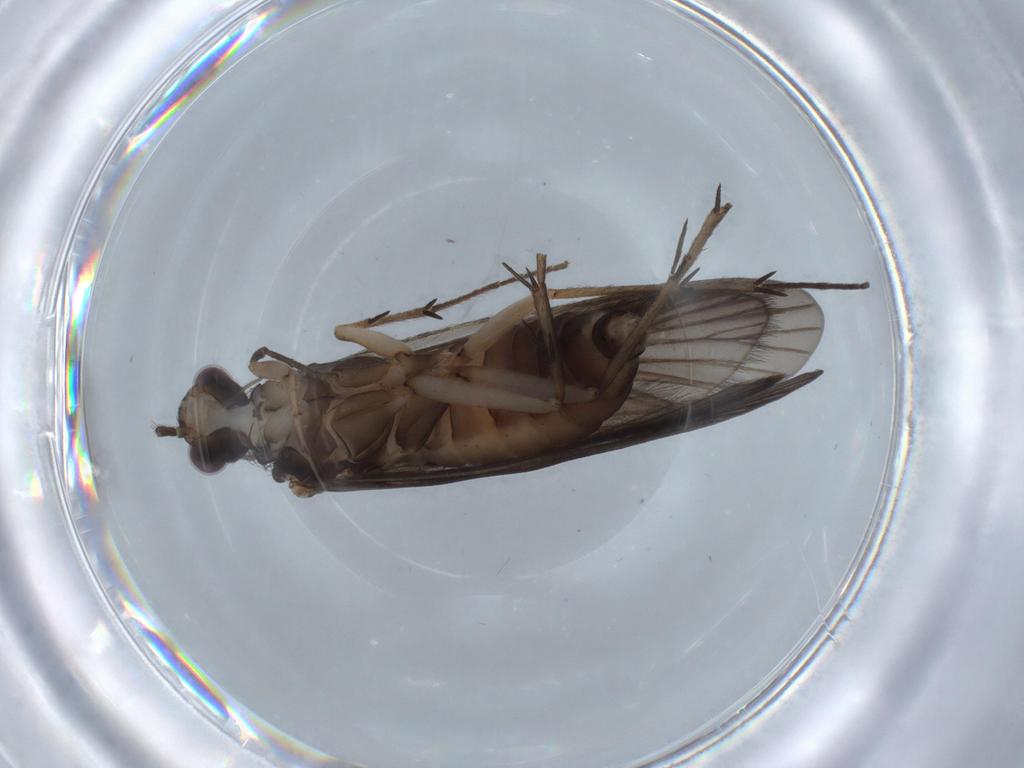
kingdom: Animalia
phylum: Arthropoda
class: Insecta
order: Trichoptera
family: Philopotamidae
